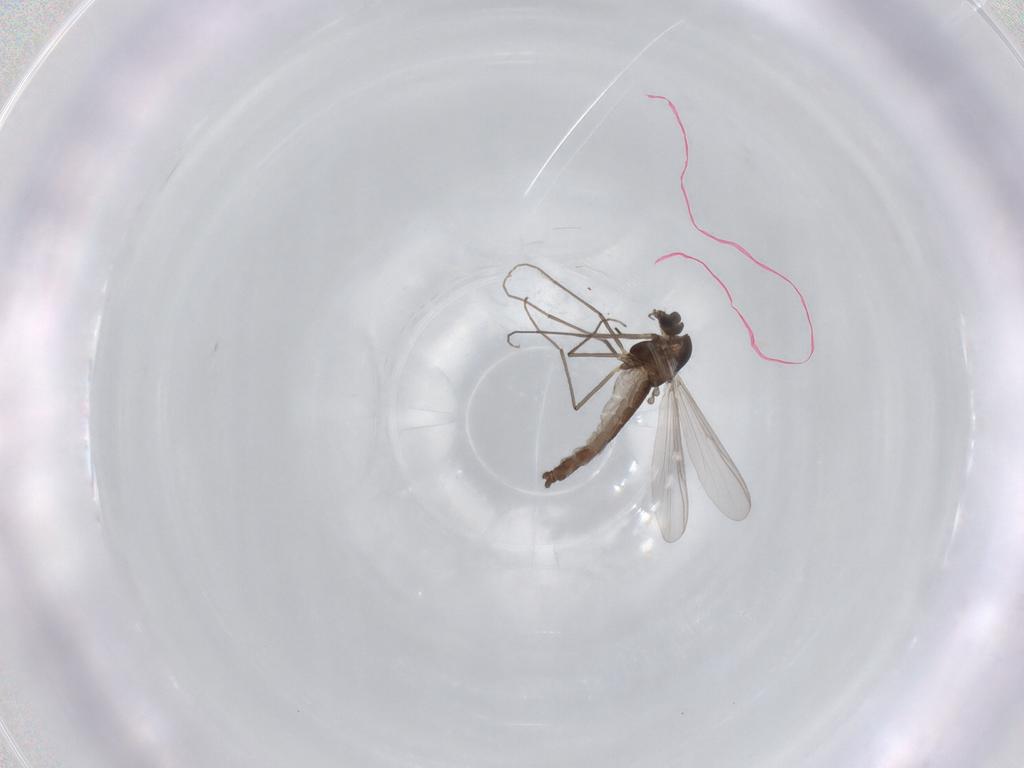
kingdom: Animalia
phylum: Arthropoda
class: Insecta
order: Diptera
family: Chironomidae
